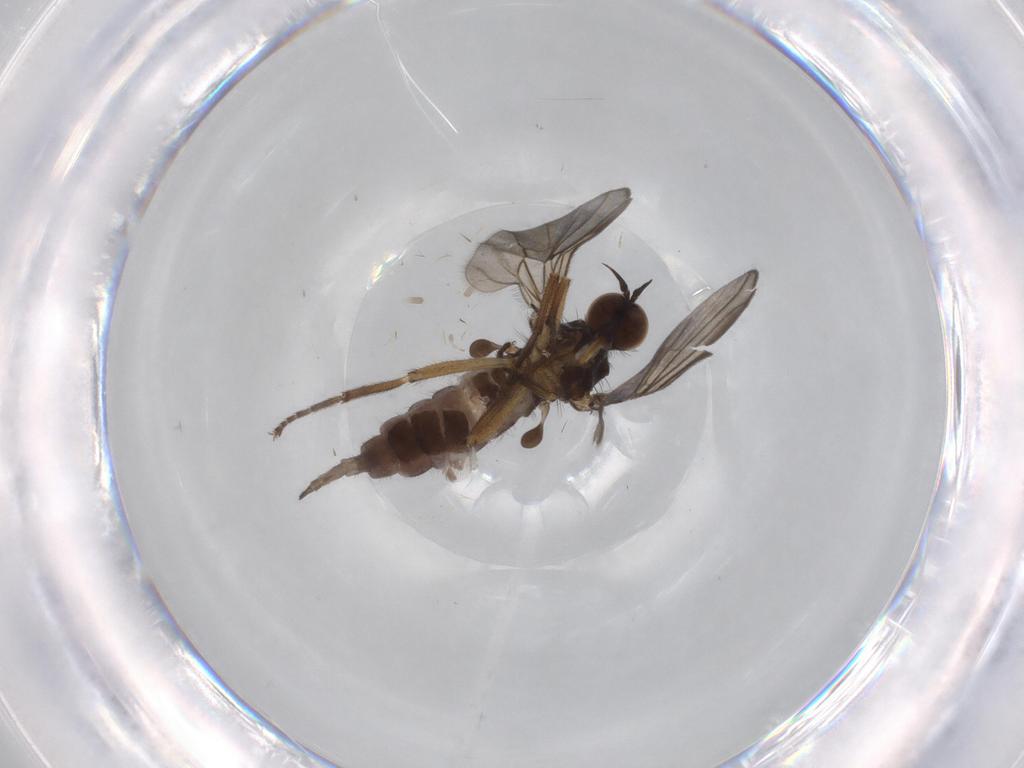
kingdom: Animalia
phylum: Arthropoda
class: Insecta
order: Diptera
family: Empididae
